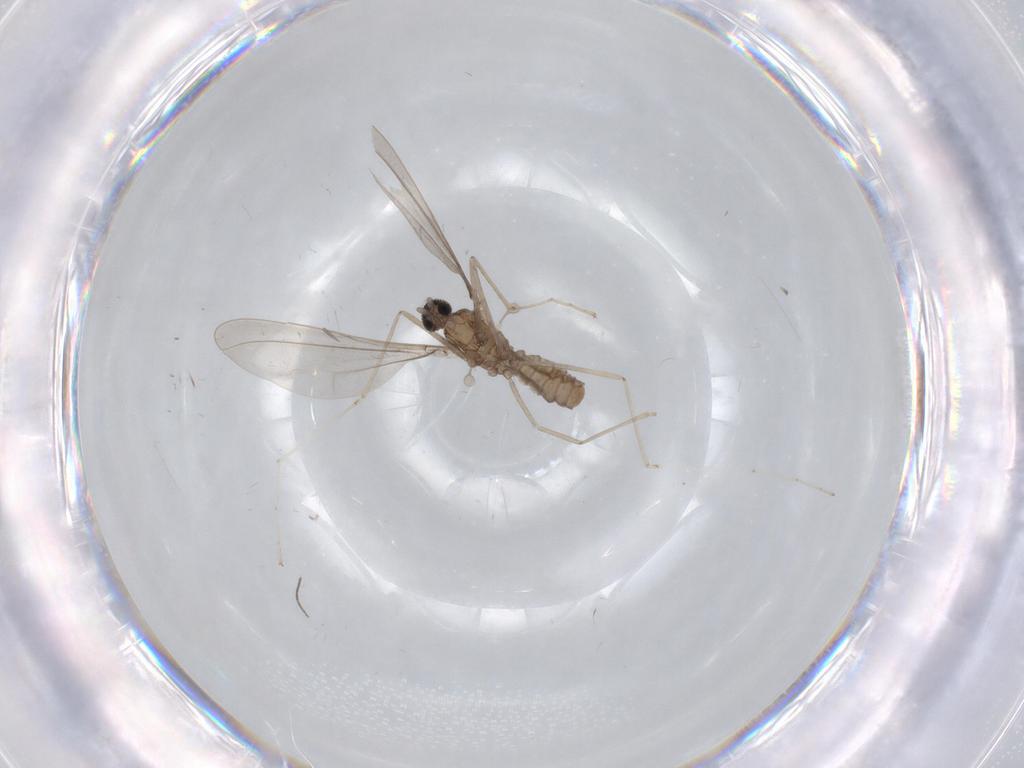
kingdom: Animalia
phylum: Arthropoda
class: Insecta
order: Diptera
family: Cecidomyiidae
